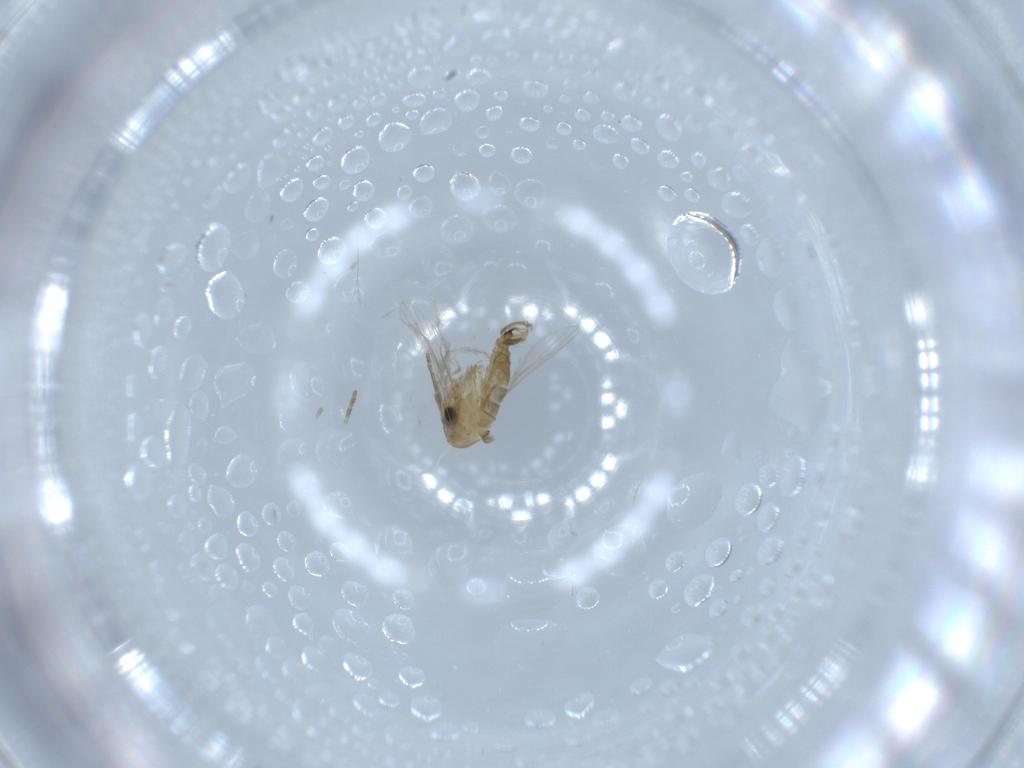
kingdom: Animalia
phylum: Arthropoda
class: Insecta
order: Diptera
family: Psychodidae
